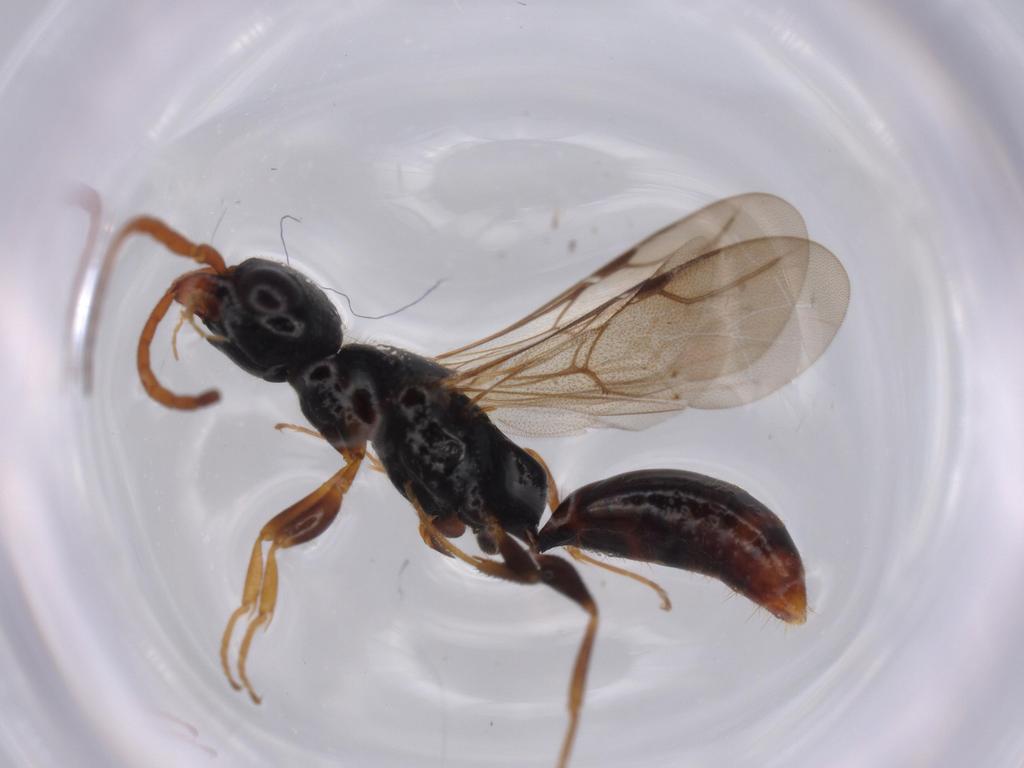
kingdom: Animalia
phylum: Arthropoda
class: Insecta
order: Hymenoptera
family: Bethylidae
